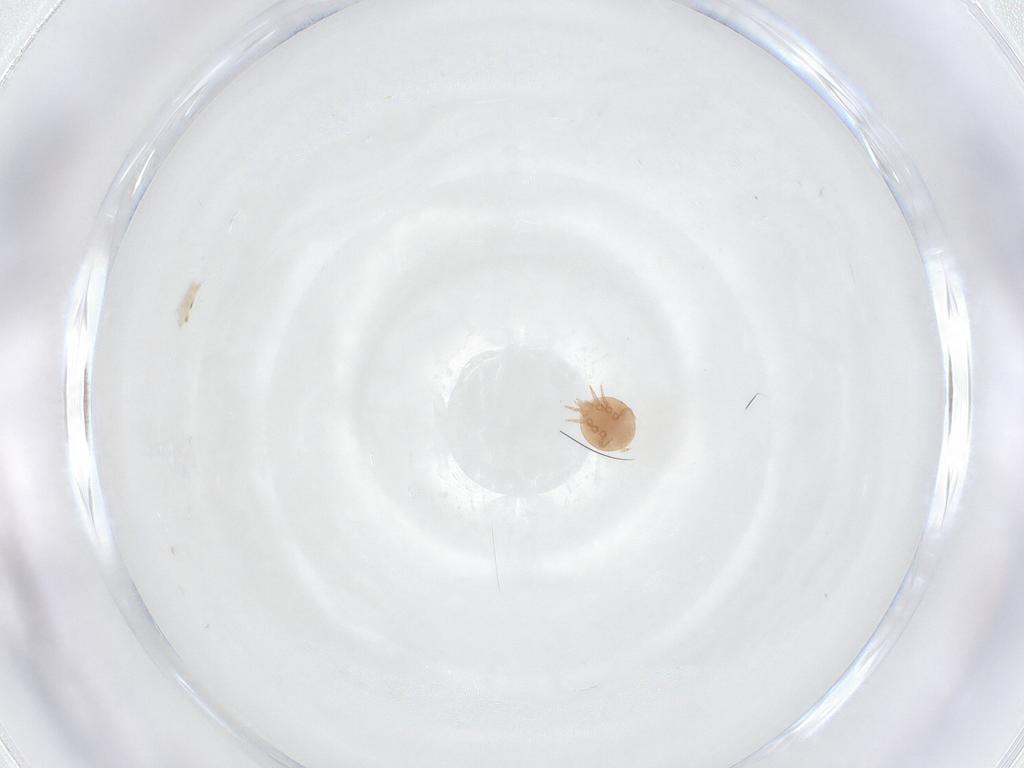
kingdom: Animalia
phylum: Arthropoda
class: Arachnida
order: Mesostigmata
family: Trematuridae
